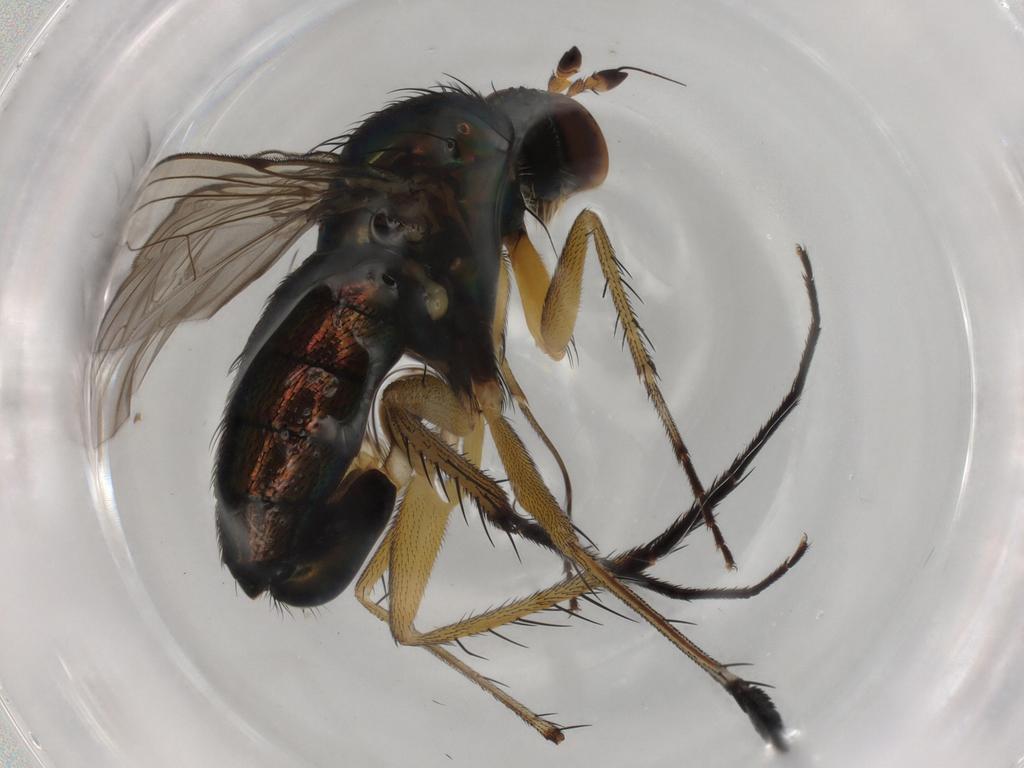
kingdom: Animalia
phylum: Arthropoda
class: Insecta
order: Diptera
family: Dolichopodidae
